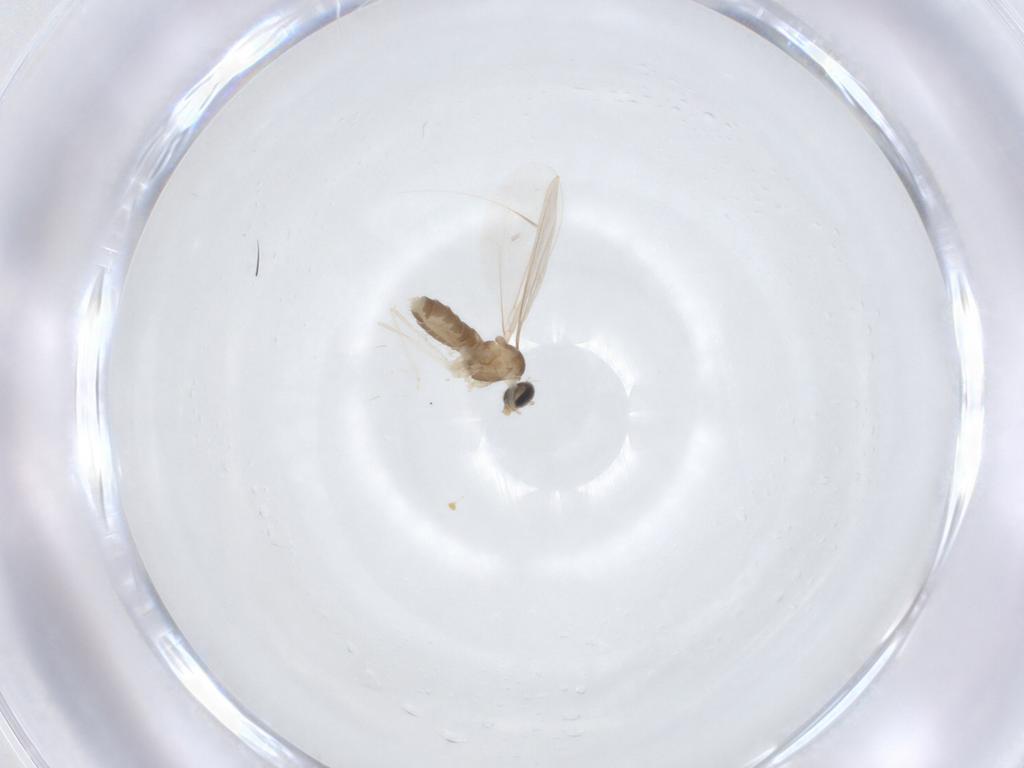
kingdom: Animalia
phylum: Arthropoda
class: Insecta
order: Diptera
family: Cecidomyiidae
